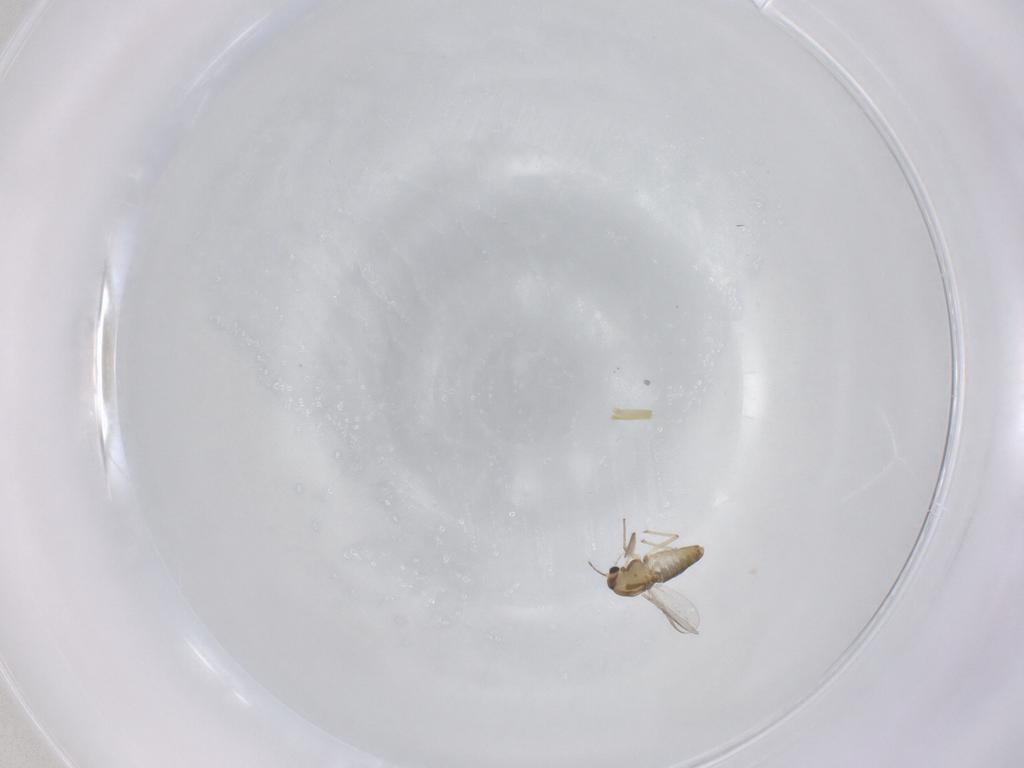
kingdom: Animalia
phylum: Arthropoda
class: Insecta
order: Diptera
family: Chironomidae
